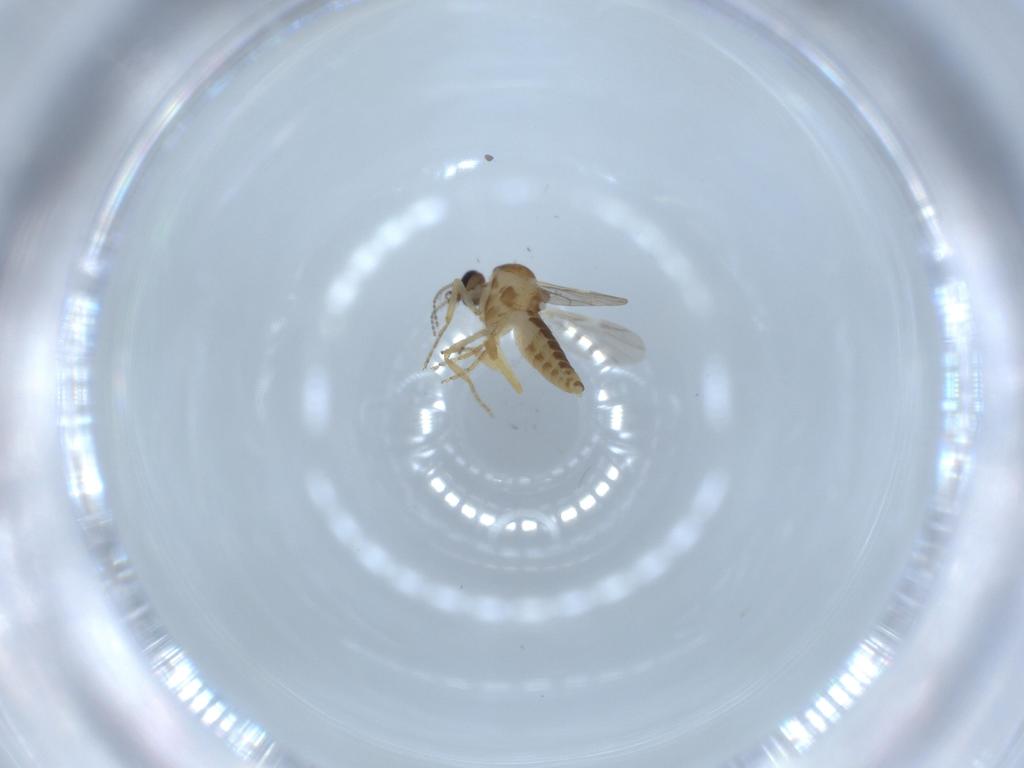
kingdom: Animalia
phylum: Arthropoda
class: Insecta
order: Diptera
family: Ceratopogonidae
